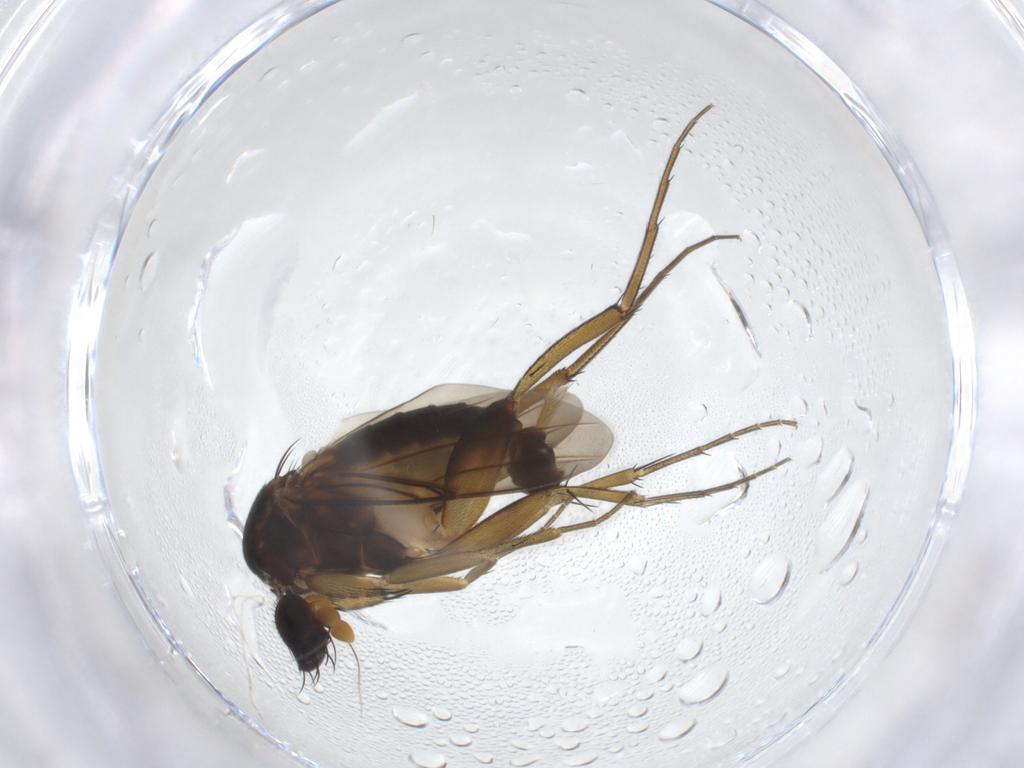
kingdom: Animalia
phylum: Arthropoda
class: Insecta
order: Diptera
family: Phoridae
